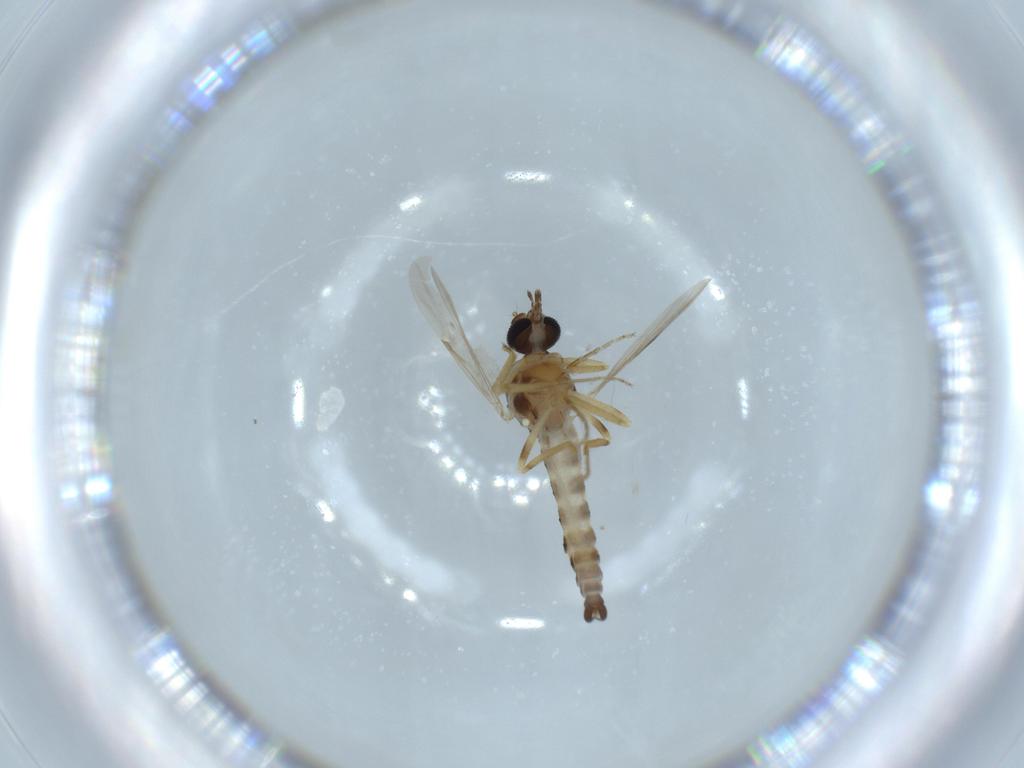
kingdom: Animalia
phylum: Arthropoda
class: Insecta
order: Diptera
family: Ceratopogonidae
